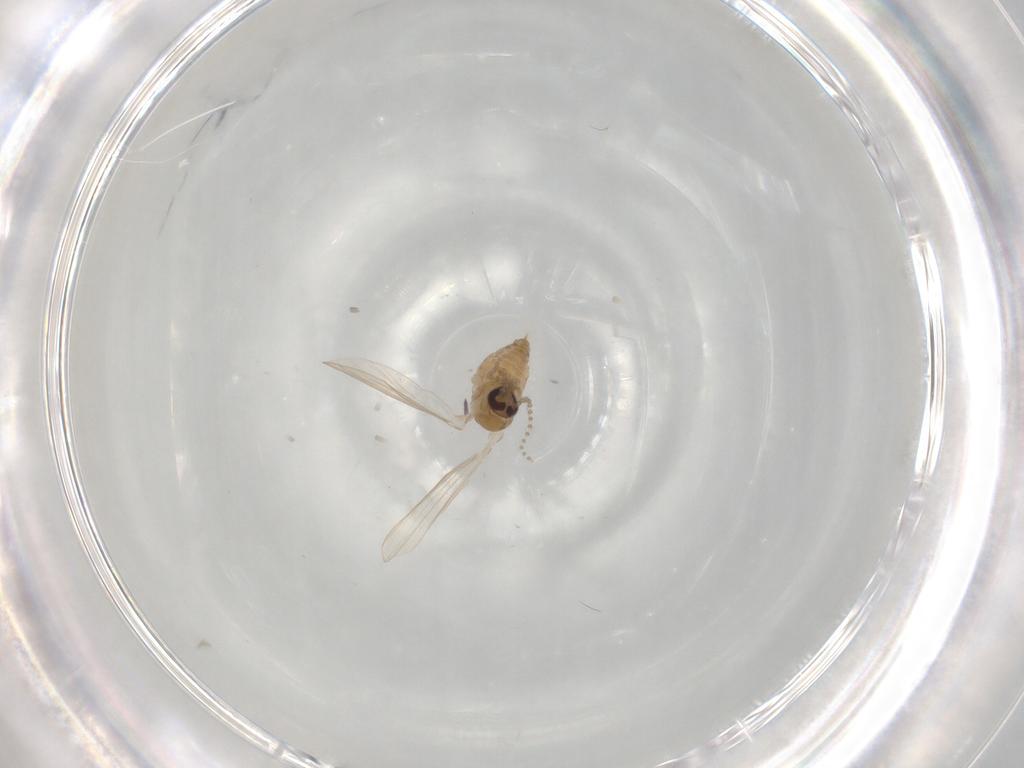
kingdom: Animalia
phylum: Arthropoda
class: Insecta
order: Diptera
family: Psychodidae
